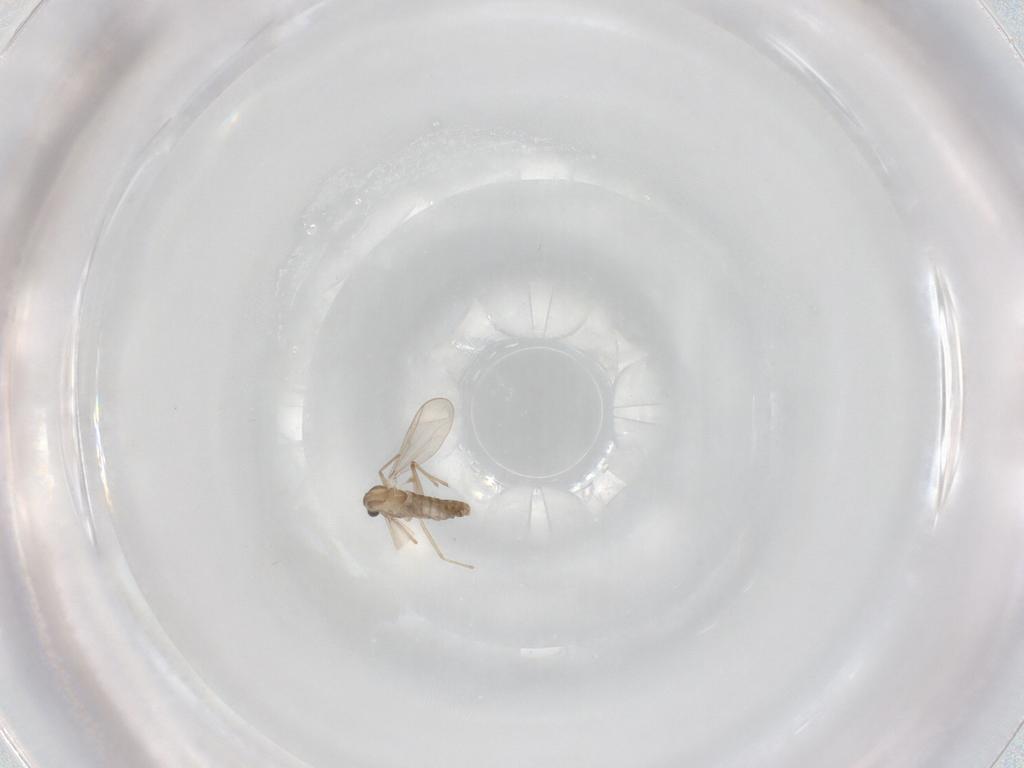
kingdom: Animalia
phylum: Arthropoda
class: Insecta
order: Diptera
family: Chironomidae
